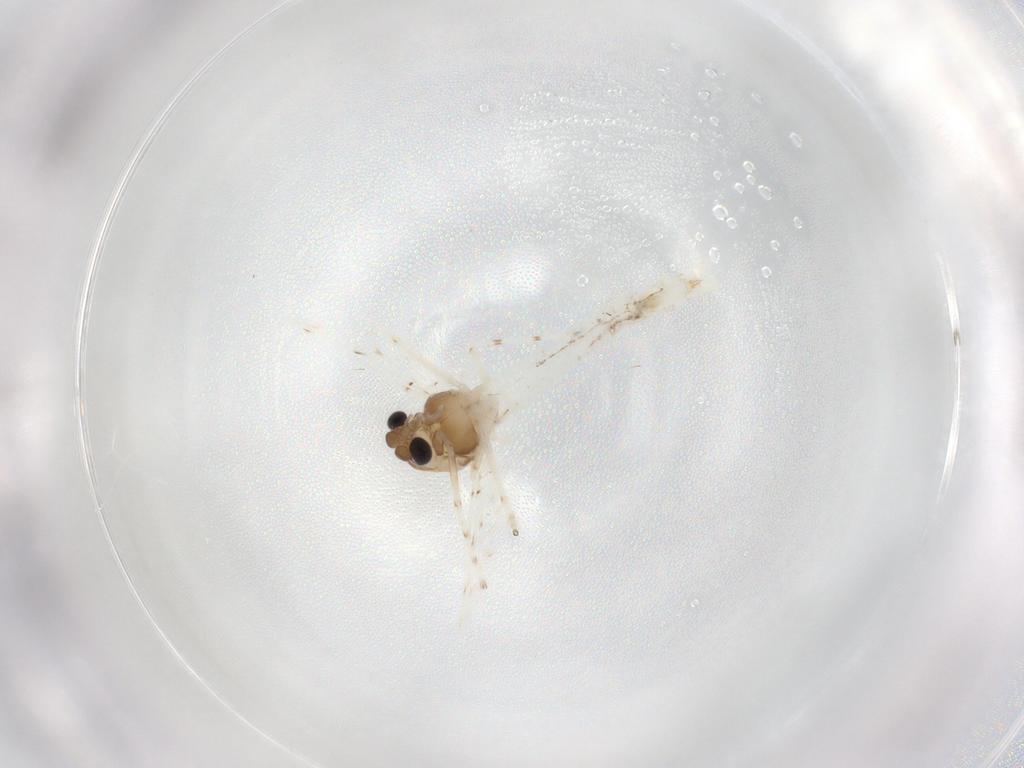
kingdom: Animalia
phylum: Arthropoda
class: Insecta
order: Diptera
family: Chironomidae
